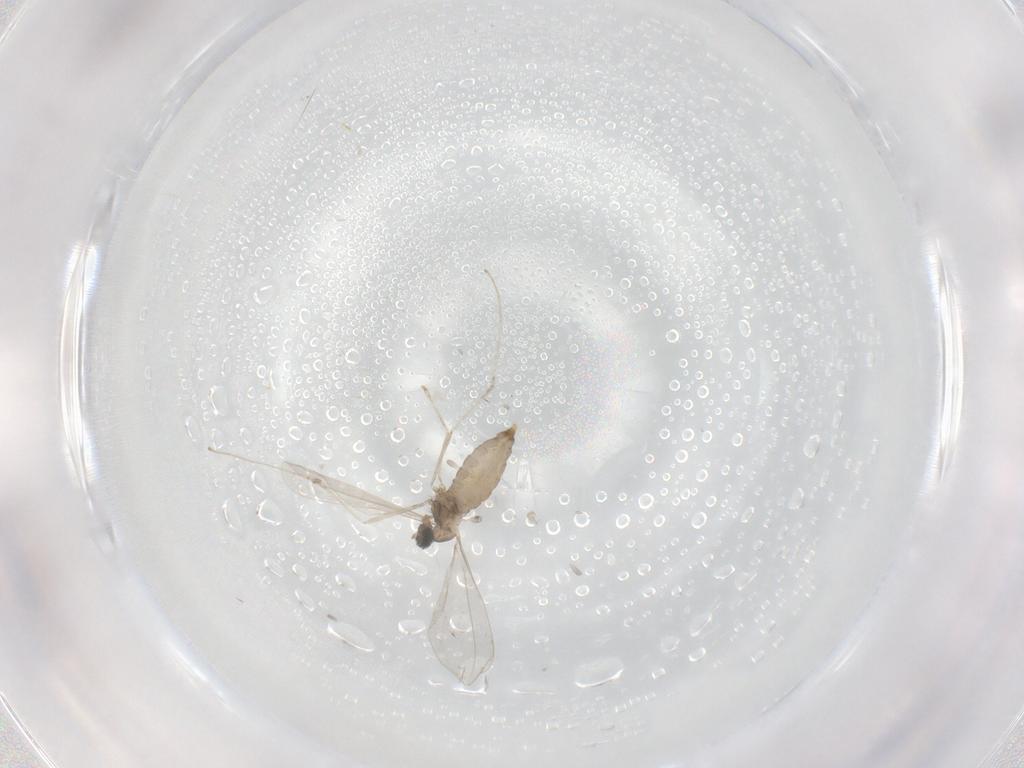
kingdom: Animalia
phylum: Arthropoda
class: Insecta
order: Diptera
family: Cecidomyiidae
